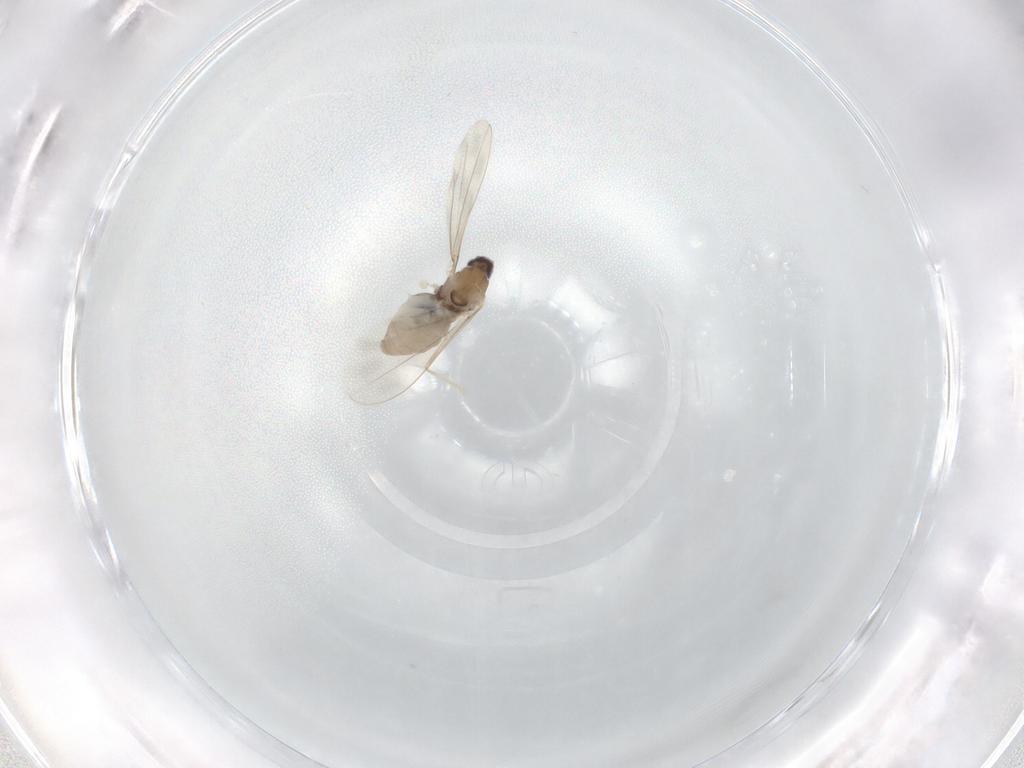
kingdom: Animalia
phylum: Arthropoda
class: Insecta
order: Diptera
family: Cecidomyiidae
